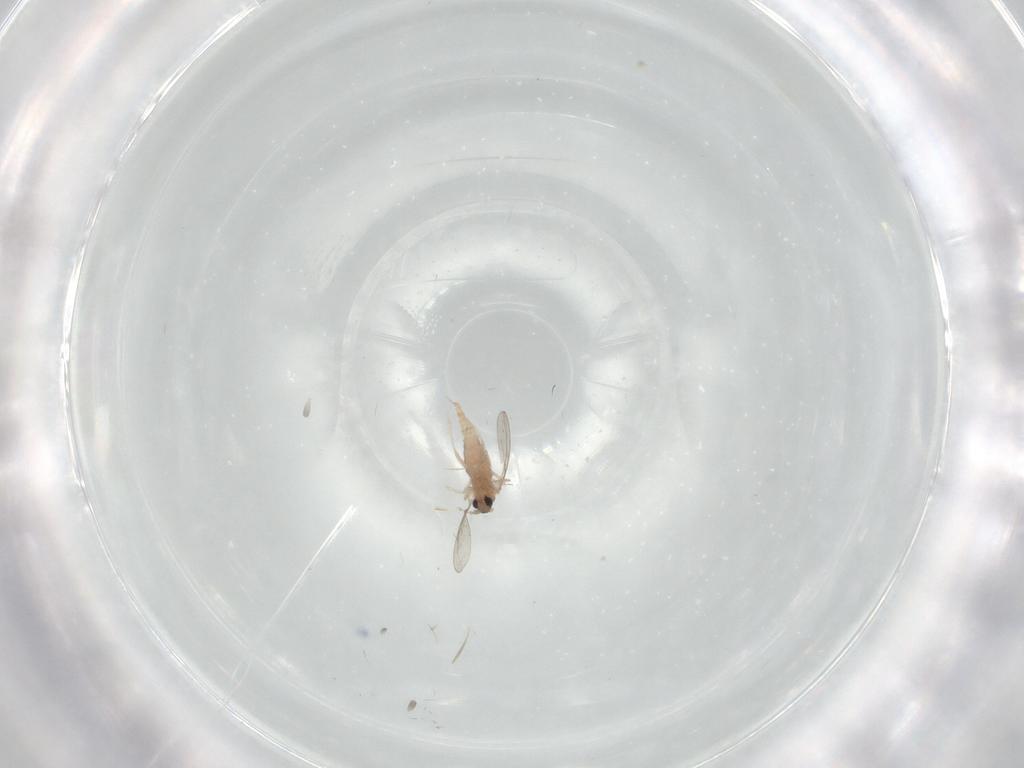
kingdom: Animalia
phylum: Arthropoda
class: Insecta
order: Diptera
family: Cecidomyiidae
